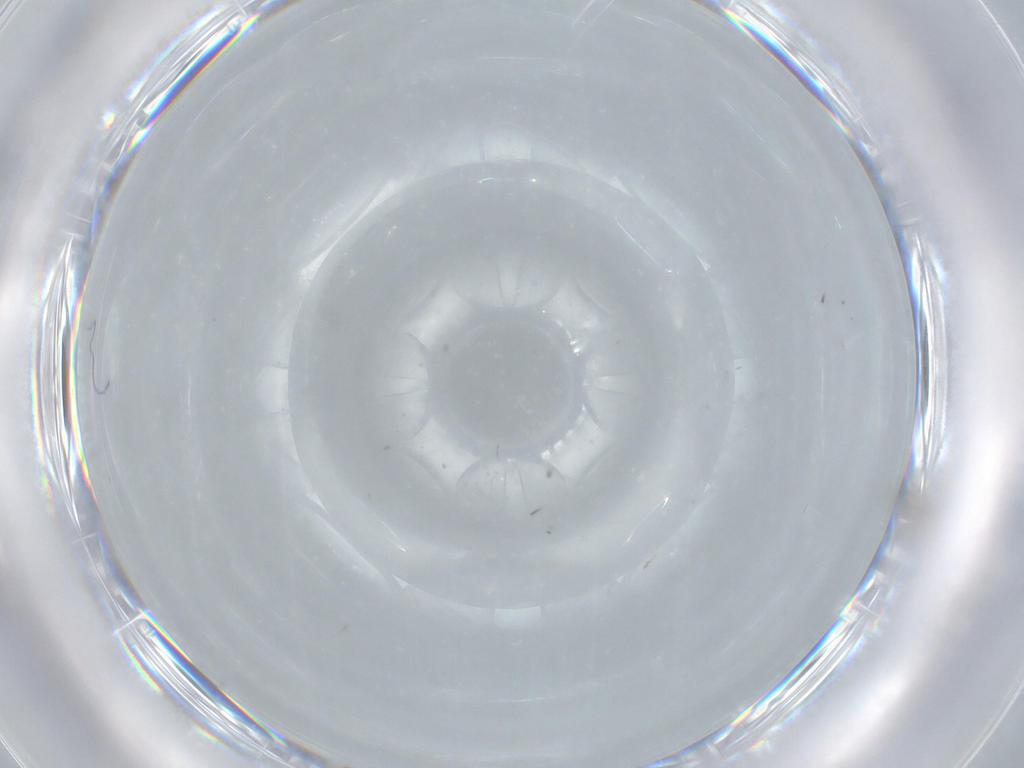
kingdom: Animalia
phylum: Arthropoda
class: Insecta
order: Diptera
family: Cecidomyiidae
